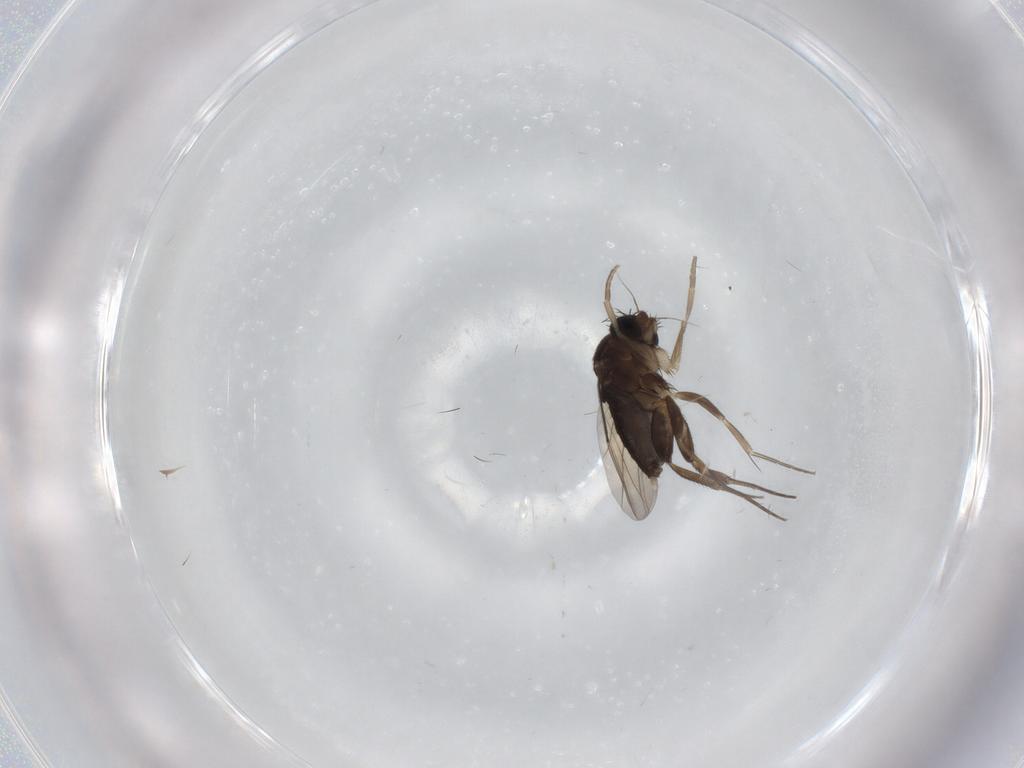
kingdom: Animalia
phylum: Arthropoda
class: Insecta
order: Diptera
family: Phoridae
